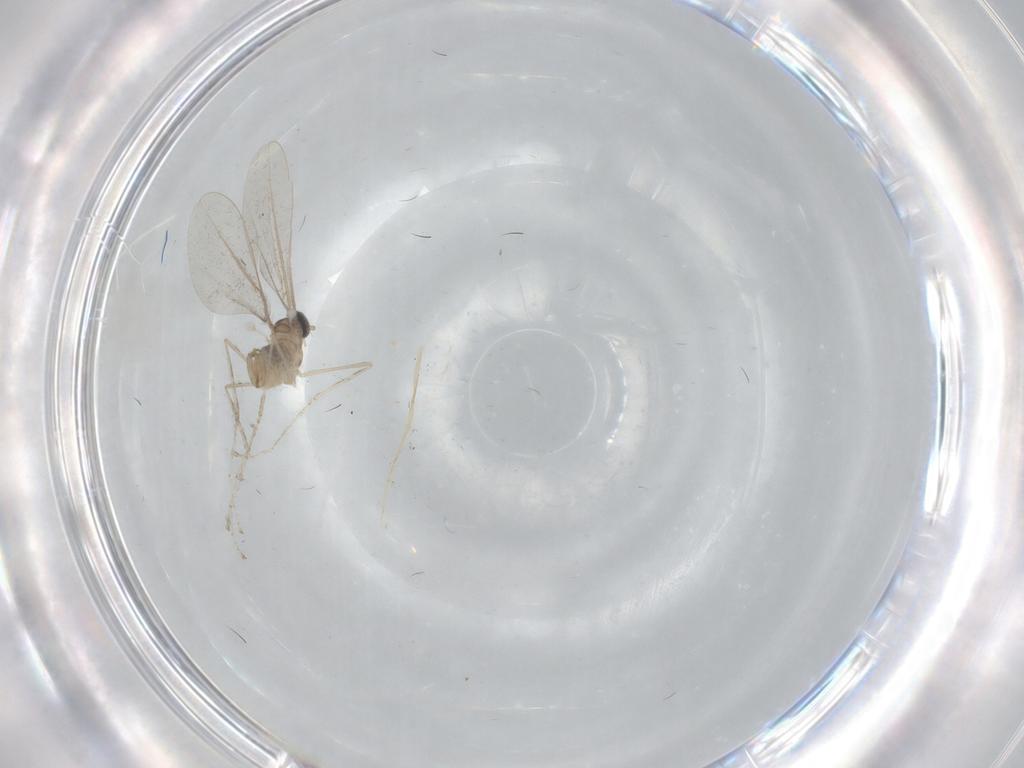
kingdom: Animalia
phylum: Arthropoda
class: Insecta
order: Diptera
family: Cecidomyiidae
